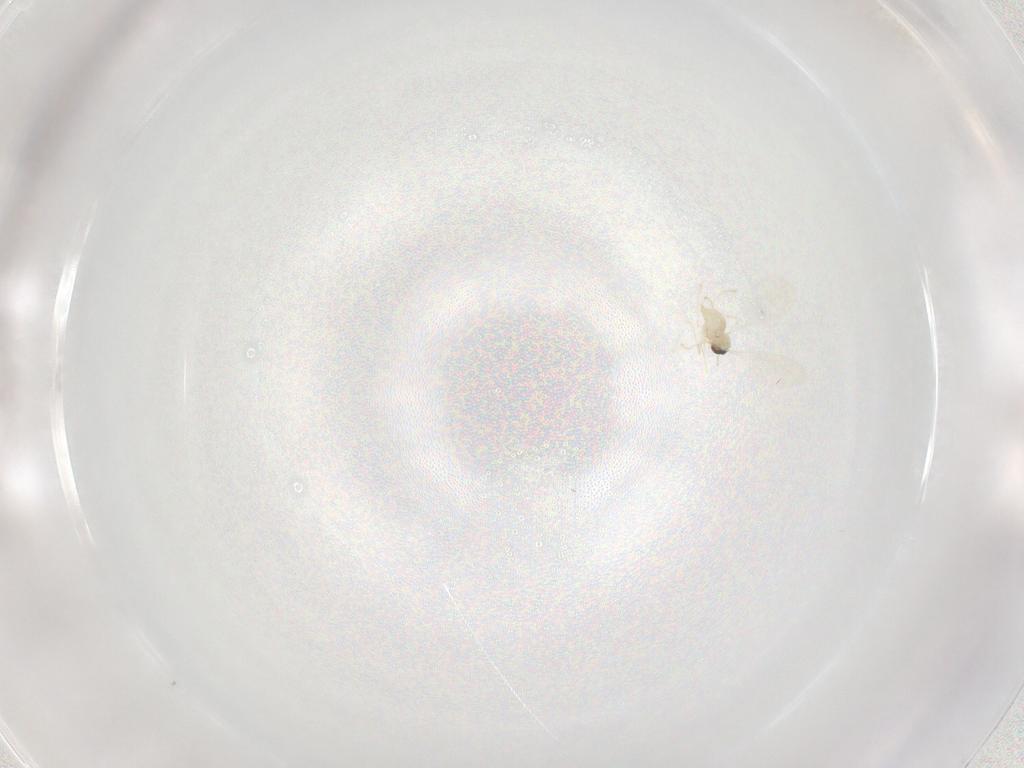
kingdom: Animalia
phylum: Arthropoda
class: Insecta
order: Diptera
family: Cecidomyiidae
